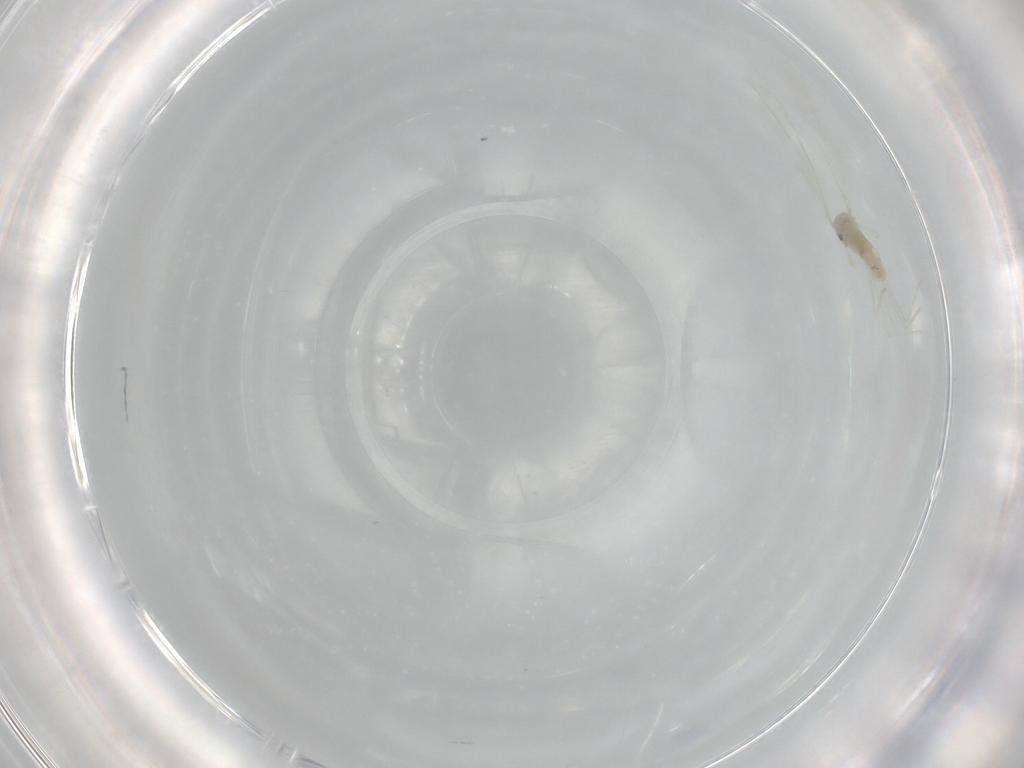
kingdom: Animalia
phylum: Arthropoda
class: Insecta
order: Diptera
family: Cecidomyiidae
